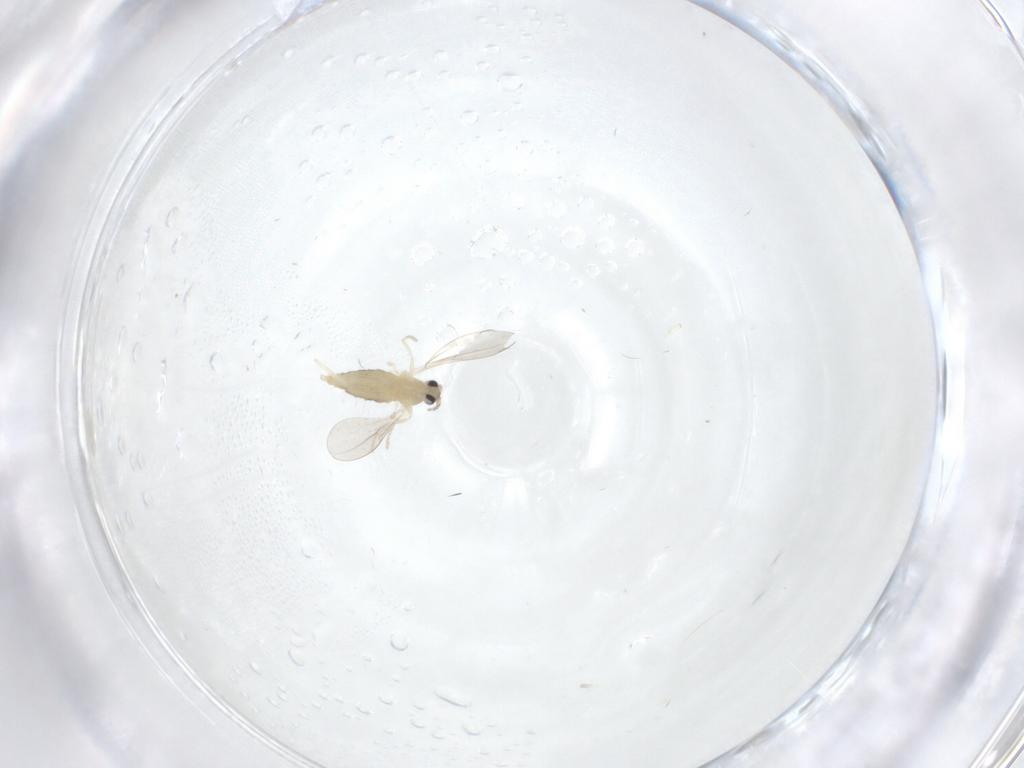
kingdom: Animalia
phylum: Arthropoda
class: Insecta
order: Diptera
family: Cecidomyiidae
